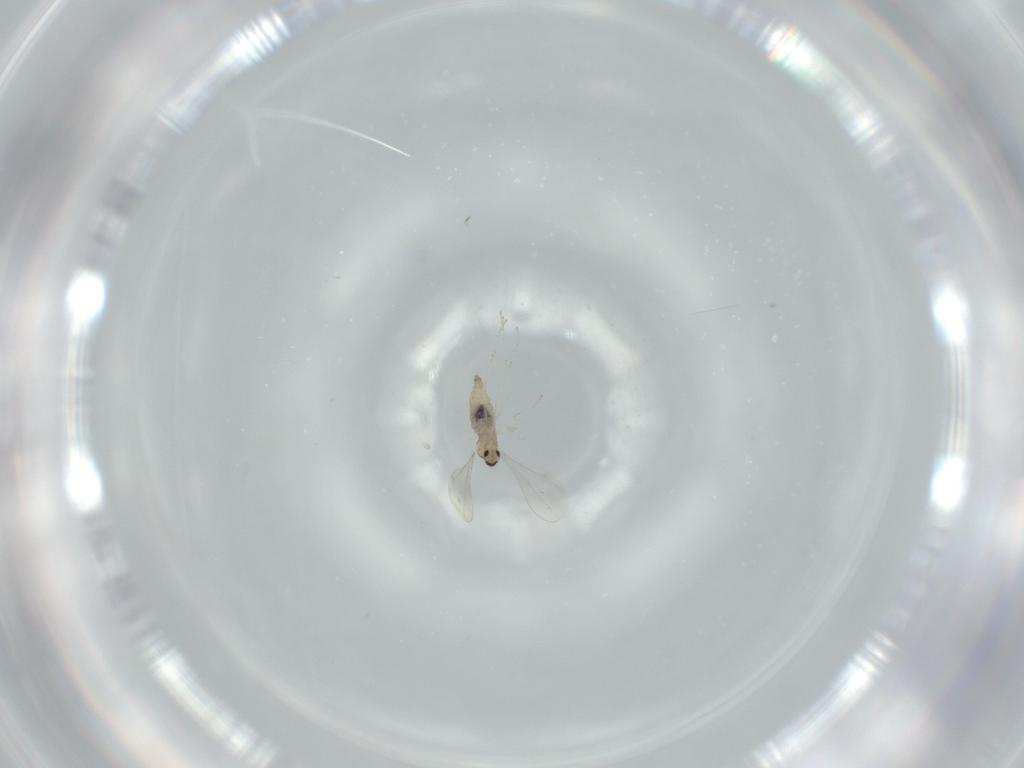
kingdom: Animalia
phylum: Arthropoda
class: Insecta
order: Diptera
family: Cecidomyiidae
